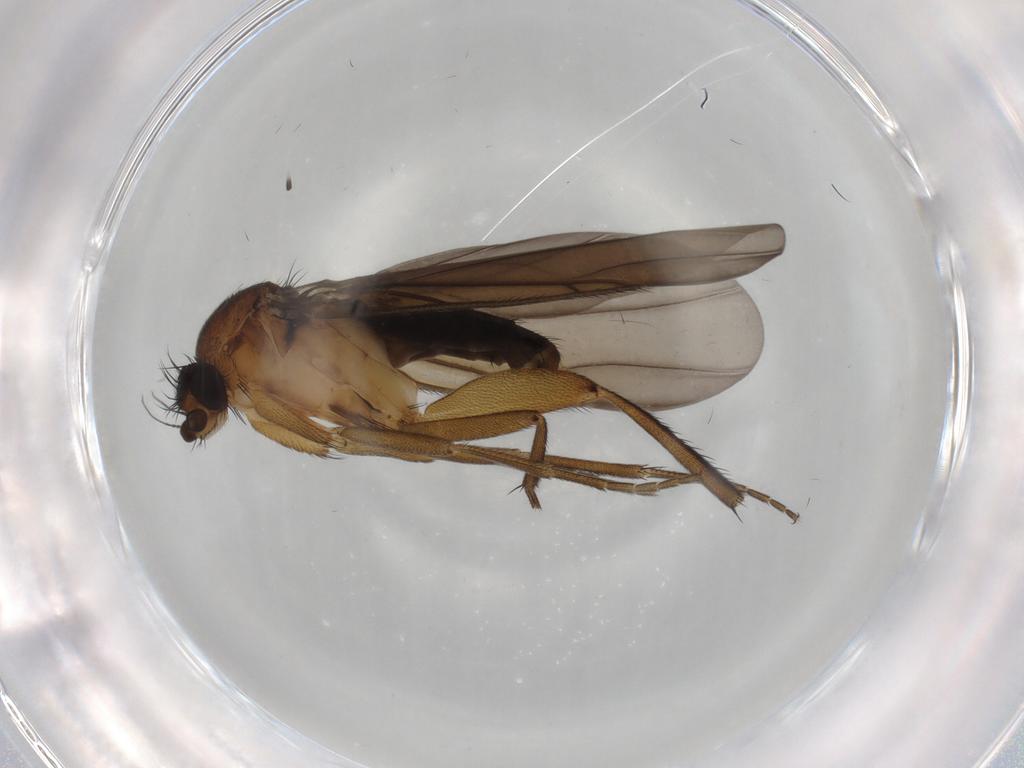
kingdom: Animalia
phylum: Arthropoda
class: Insecta
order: Diptera
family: Phoridae
